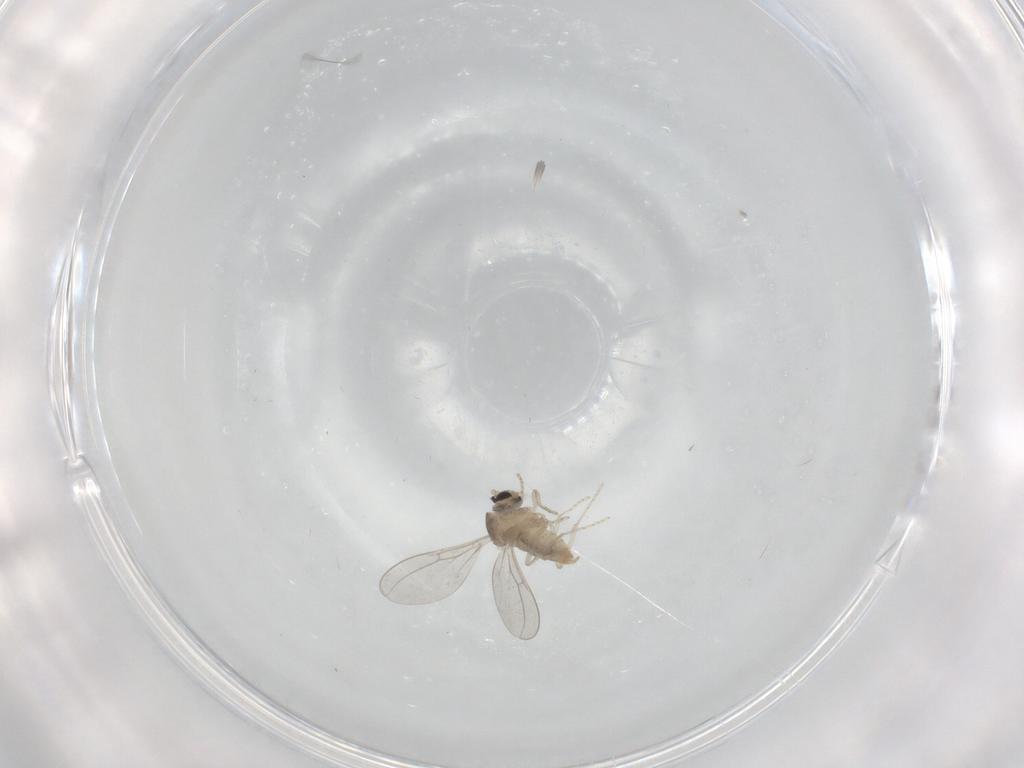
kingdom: Animalia
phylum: Arthropoda
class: Insecta
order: Diptera
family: Cecidomyiidae
